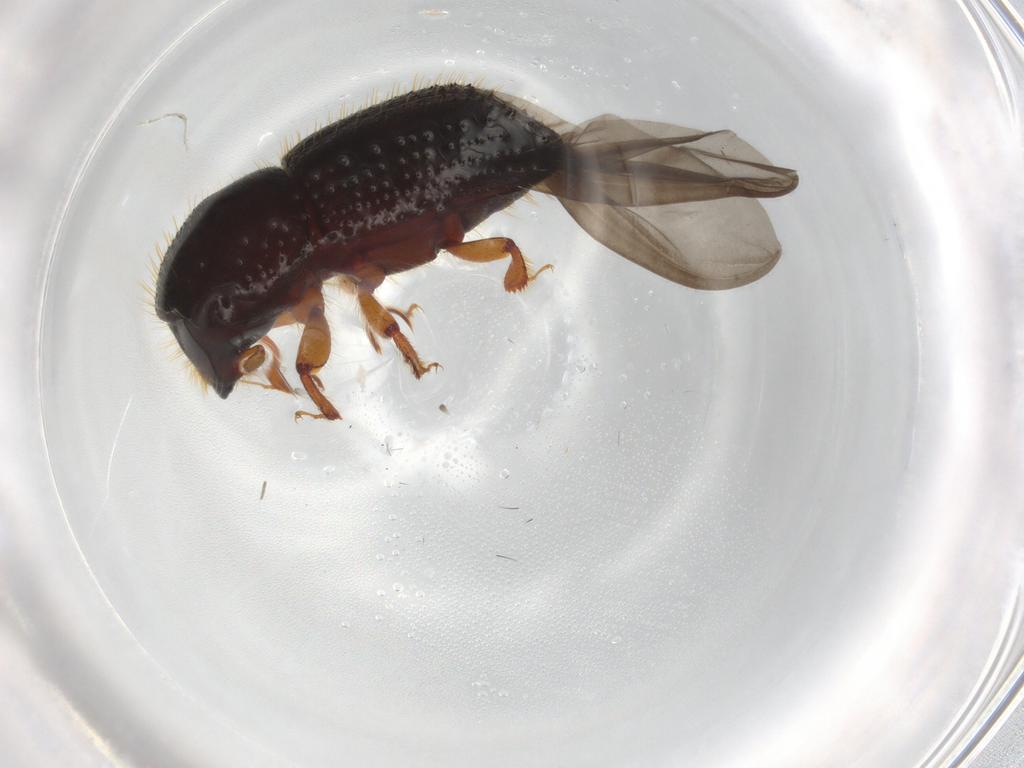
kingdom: Animalia
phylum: Arthropoda
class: Insecta
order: Coleoptera
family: Curculionidae
